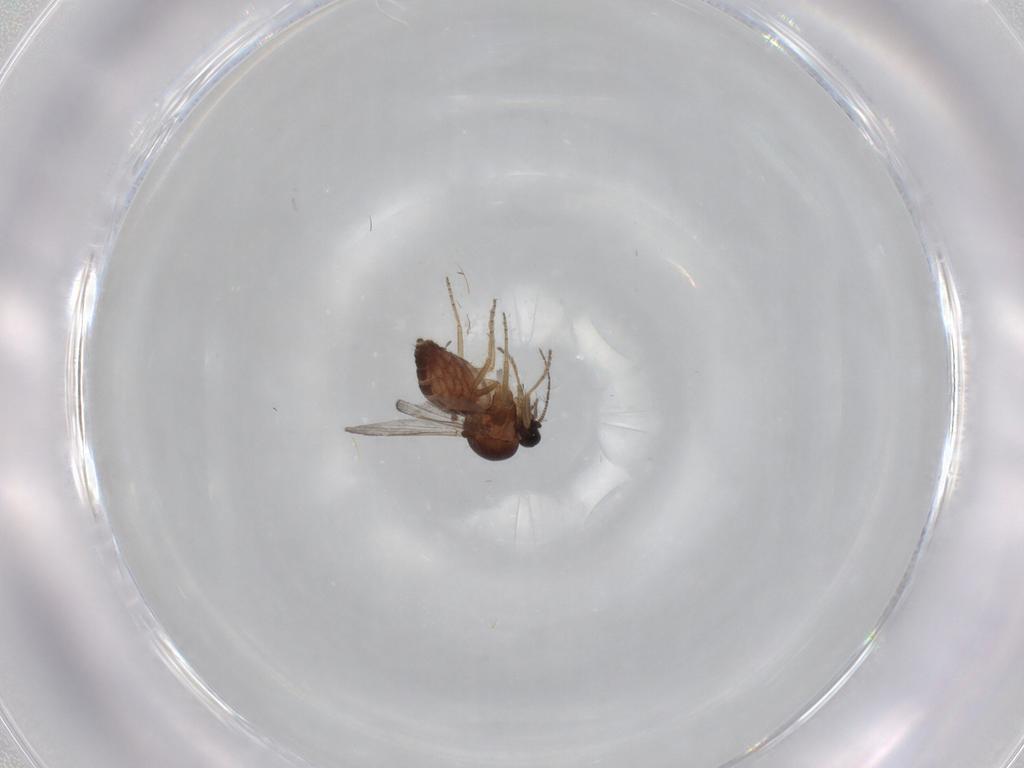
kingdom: Animalia
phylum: Arthropoda
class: Insecta
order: Diptera
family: Ceratopogonidae
